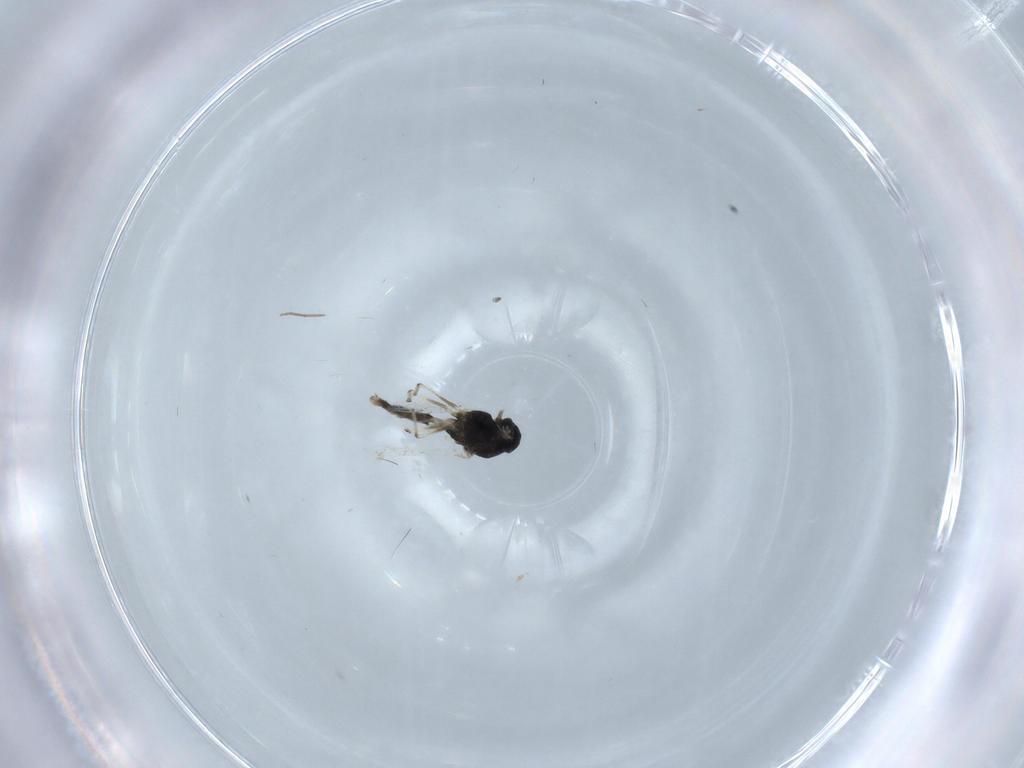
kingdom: Animalia
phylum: Arthropoda
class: Insecta
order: Diptera
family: Chironomidae
